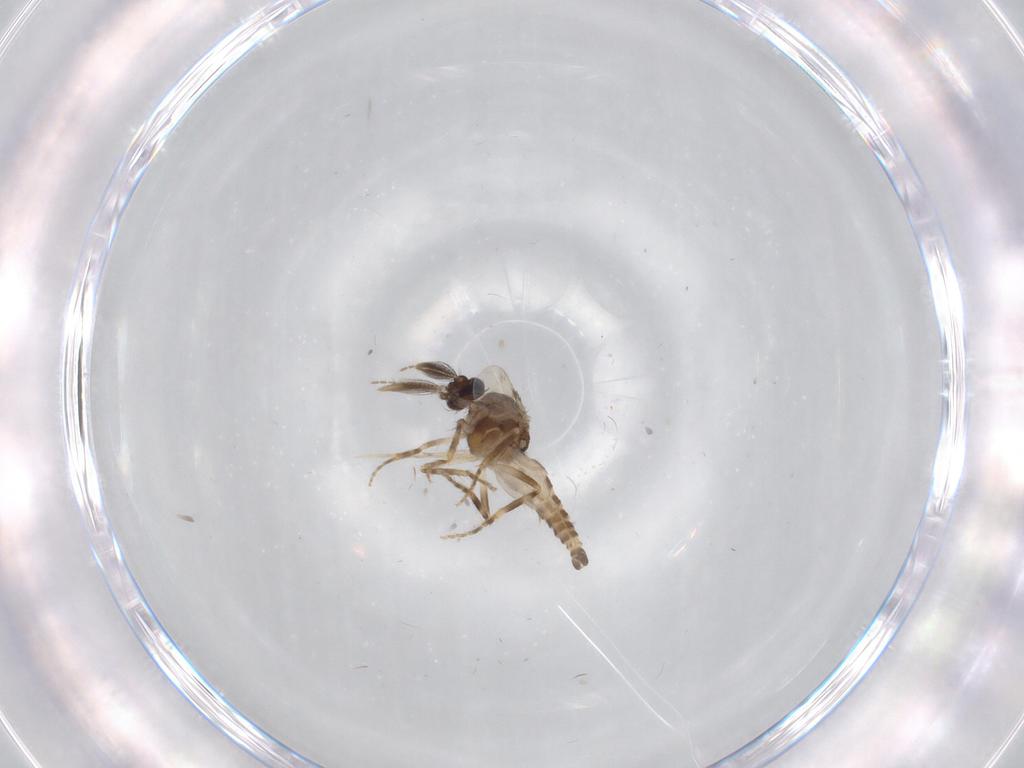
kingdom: Animalia
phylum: Arthropoda
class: Insecta
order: Diptera
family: Ceratopogonidae
